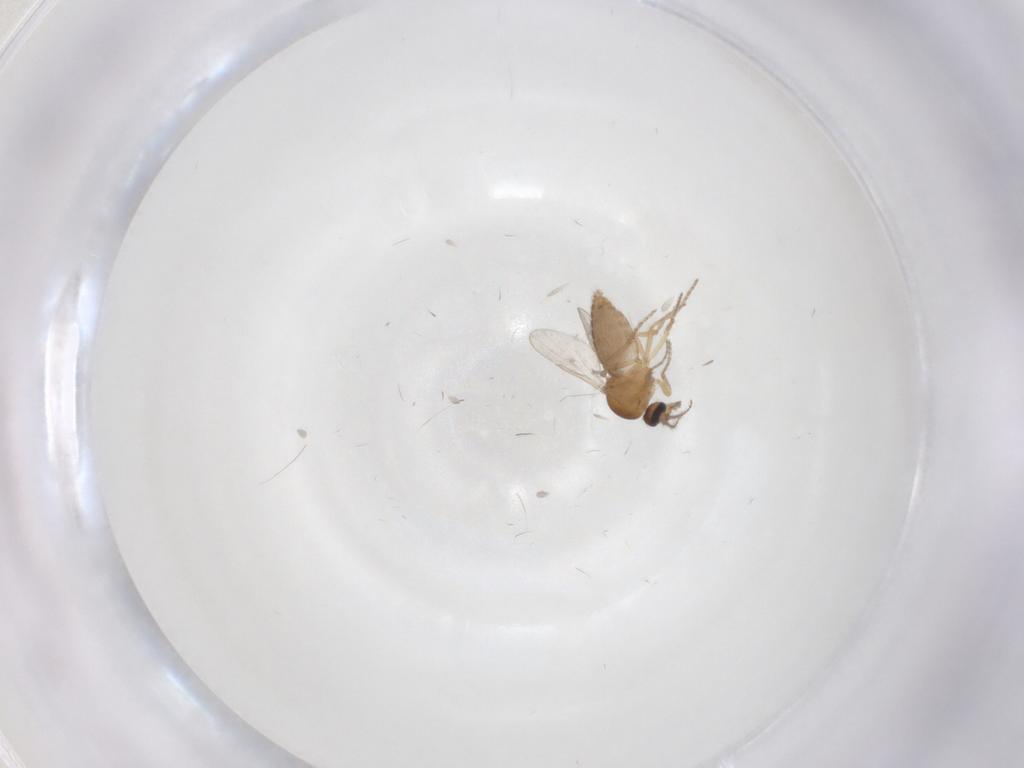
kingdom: Animalia
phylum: Arthropoda
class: Insecta
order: Diptera
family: Ceratopogonidae
